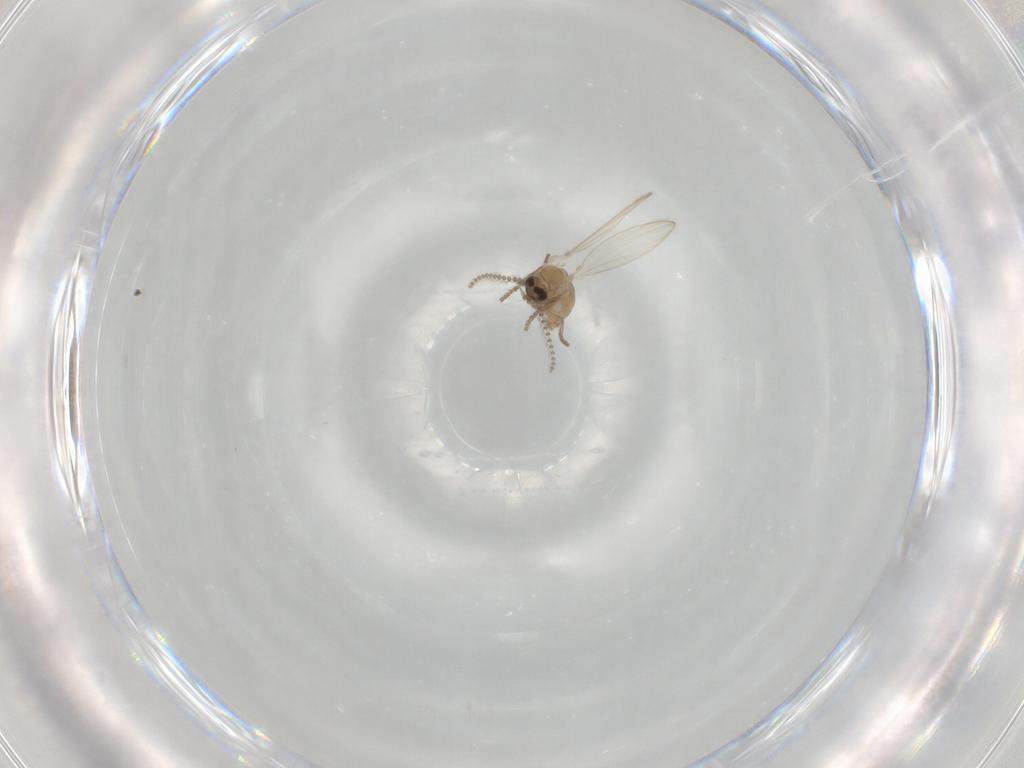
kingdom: Animalia
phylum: Arthropoda
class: Insecta
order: Diptera
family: Psychodidae
